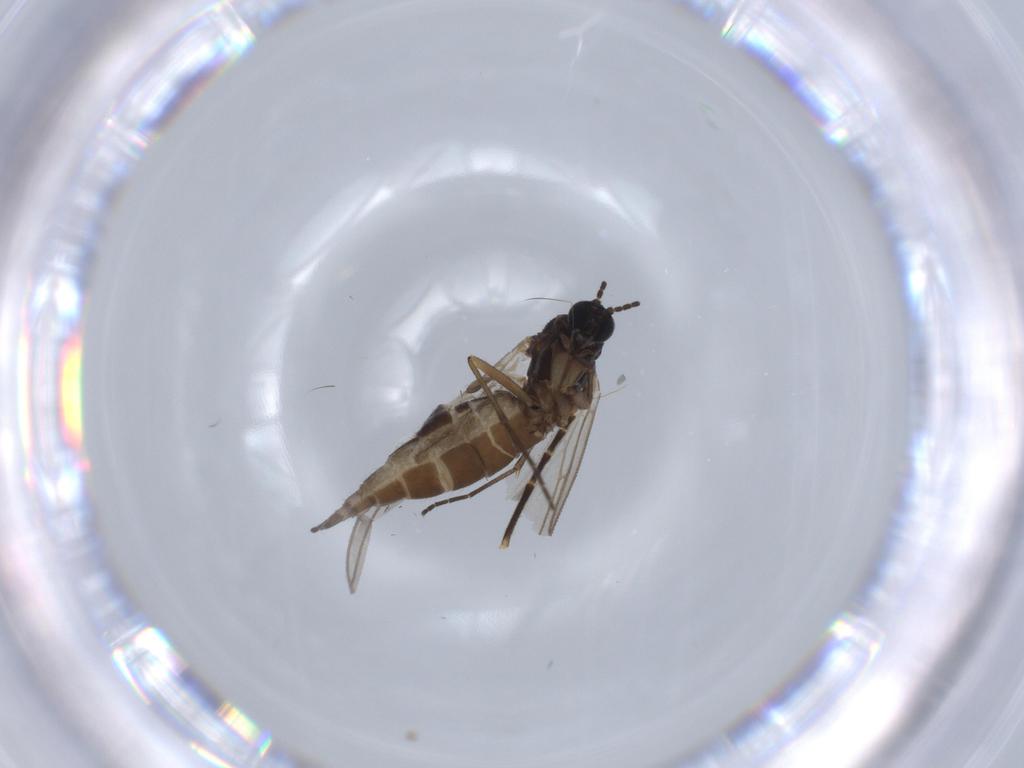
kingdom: Animalia
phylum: Arthropoda
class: Insecta
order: Diptera
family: Sciaridae
